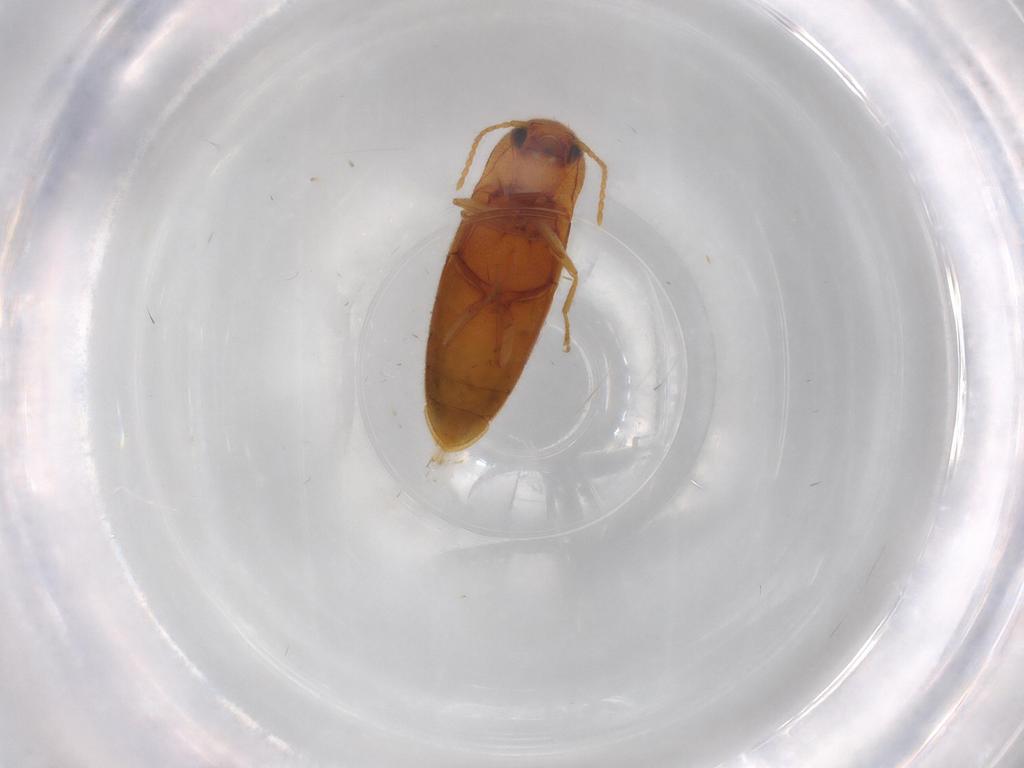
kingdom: Animalia
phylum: Arthropoda
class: Insecta
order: Coleoptera
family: Elateridae
